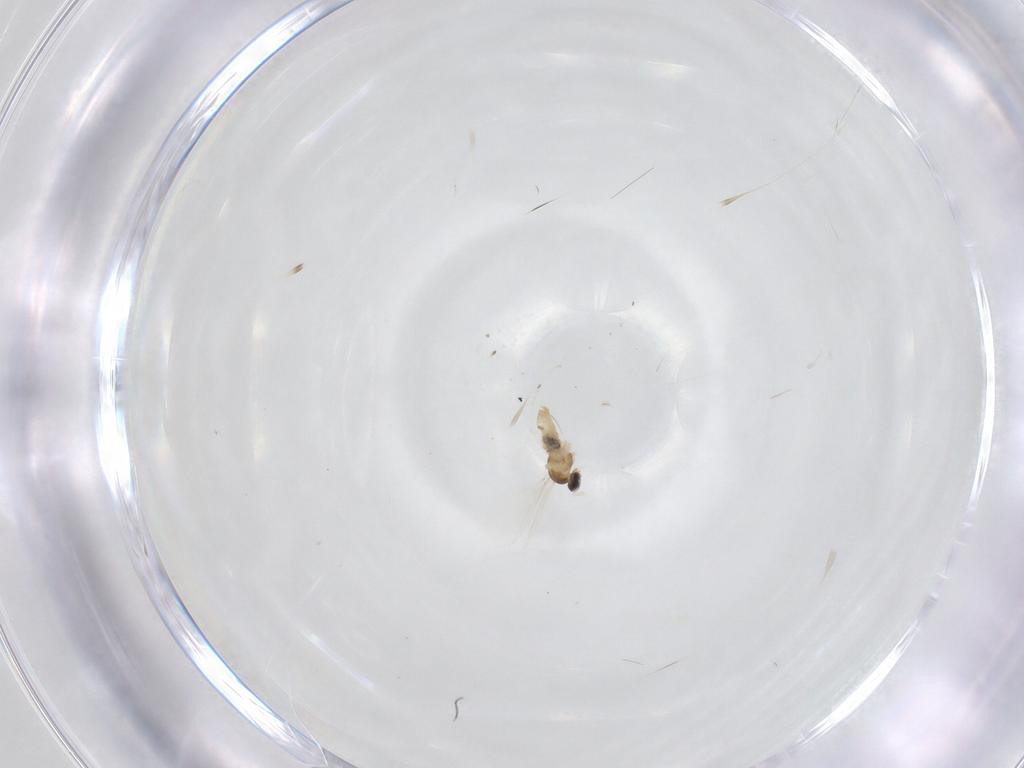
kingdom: Animalia
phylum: Arthropoda
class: Insecta
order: Diptera
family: Cecidomyiidae
